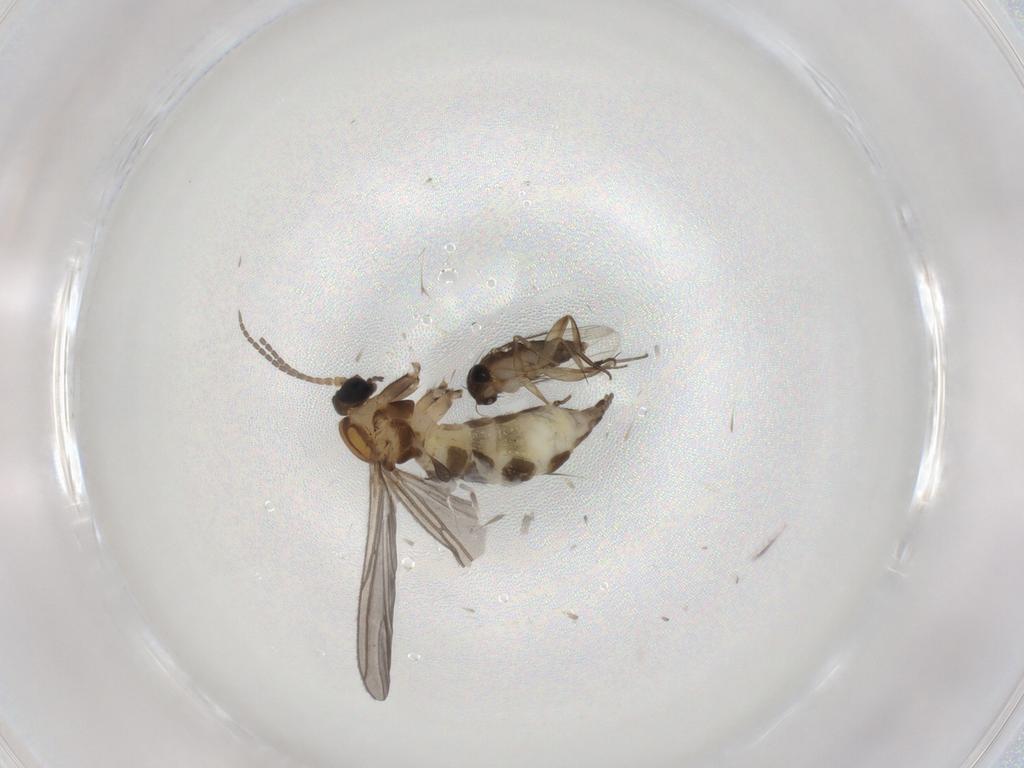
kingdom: Animalia
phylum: Arthropoda
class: Insecta
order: Diptera
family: Sciaridae
